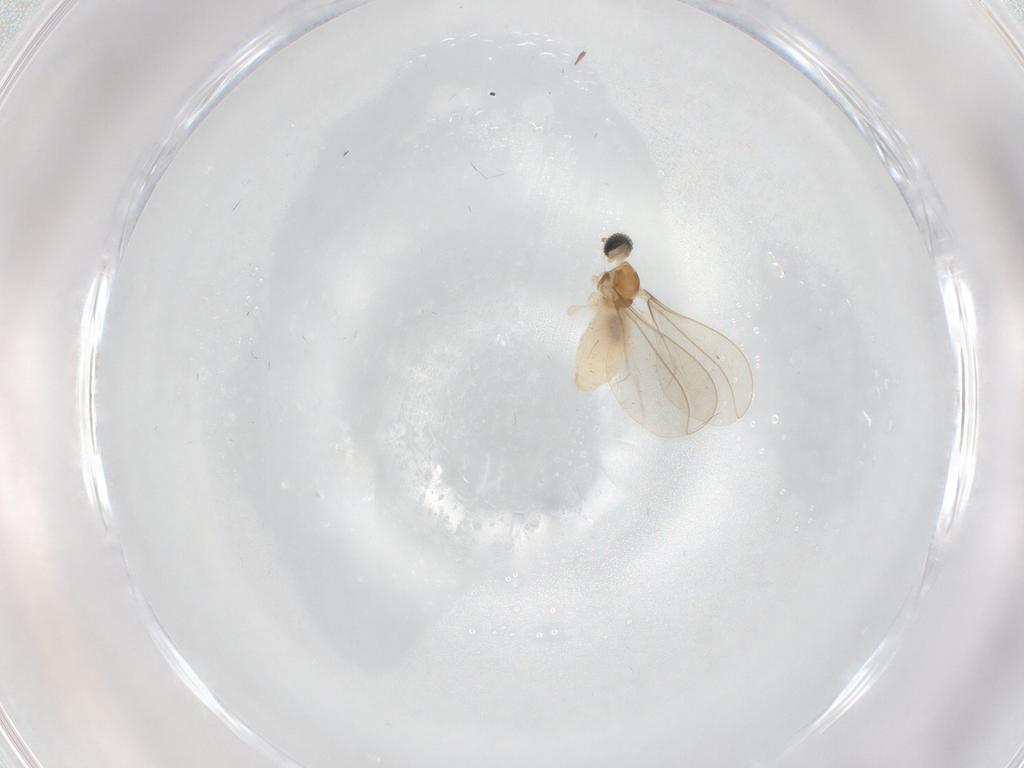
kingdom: Animalia
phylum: Arthropoda
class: Insecta
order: Diptera
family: Cecidomyiidae
